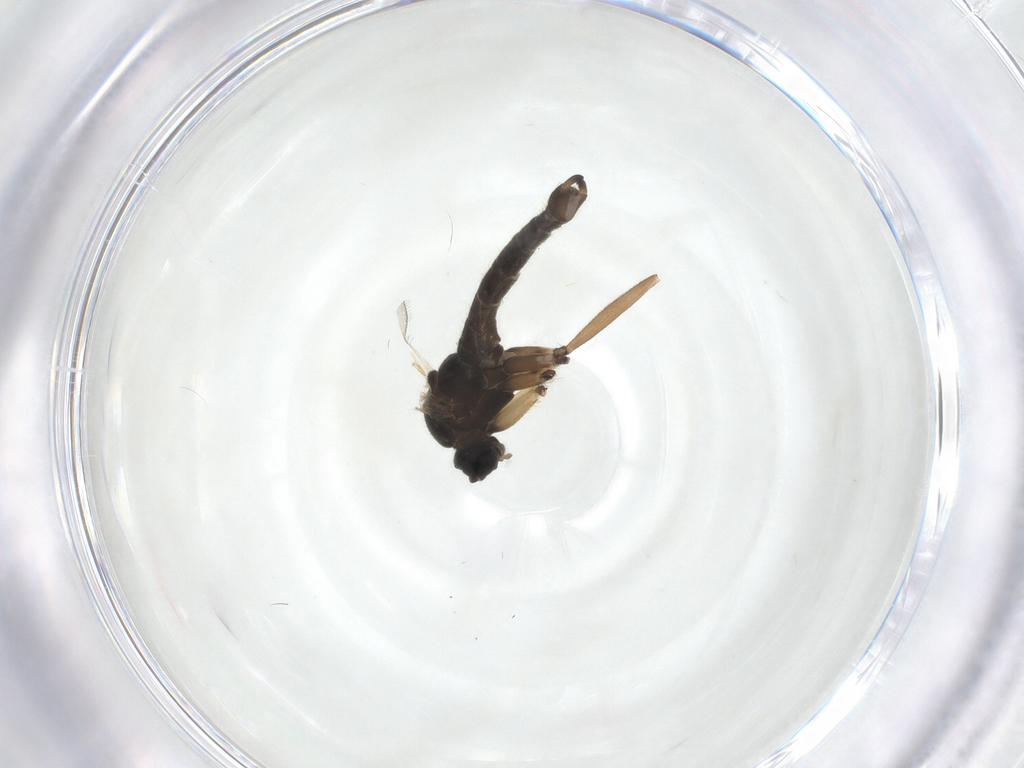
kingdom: Animalia
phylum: Arthropoda
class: Insecta
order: Diptera
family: Sciaridae
